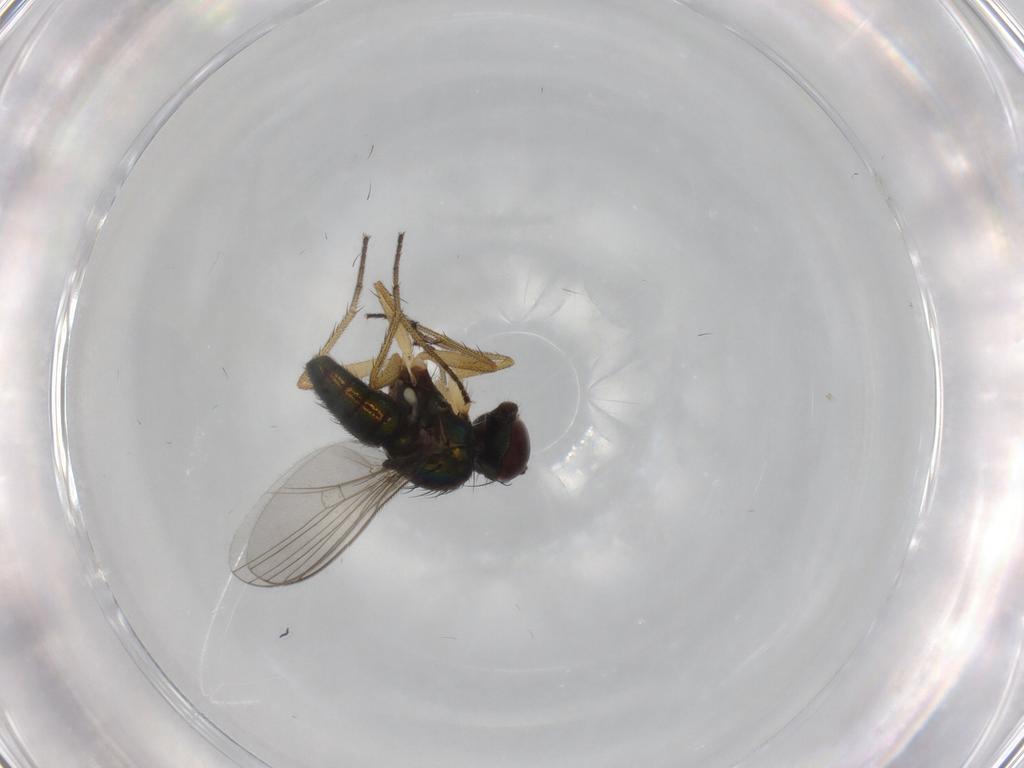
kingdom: Animalia
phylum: Arthropoda
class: Insecta
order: Diptera
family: Dolichopodidae
